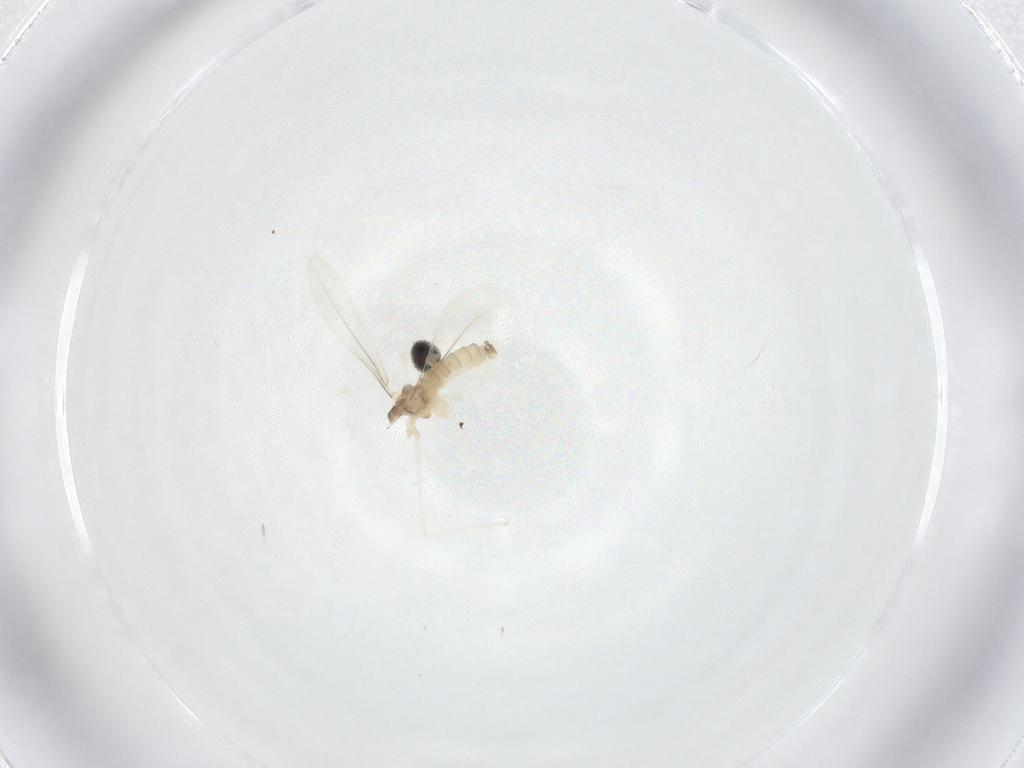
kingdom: Animalia
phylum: Arthropoda
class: Insecta
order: Diptera
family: Cecidomyiidae
